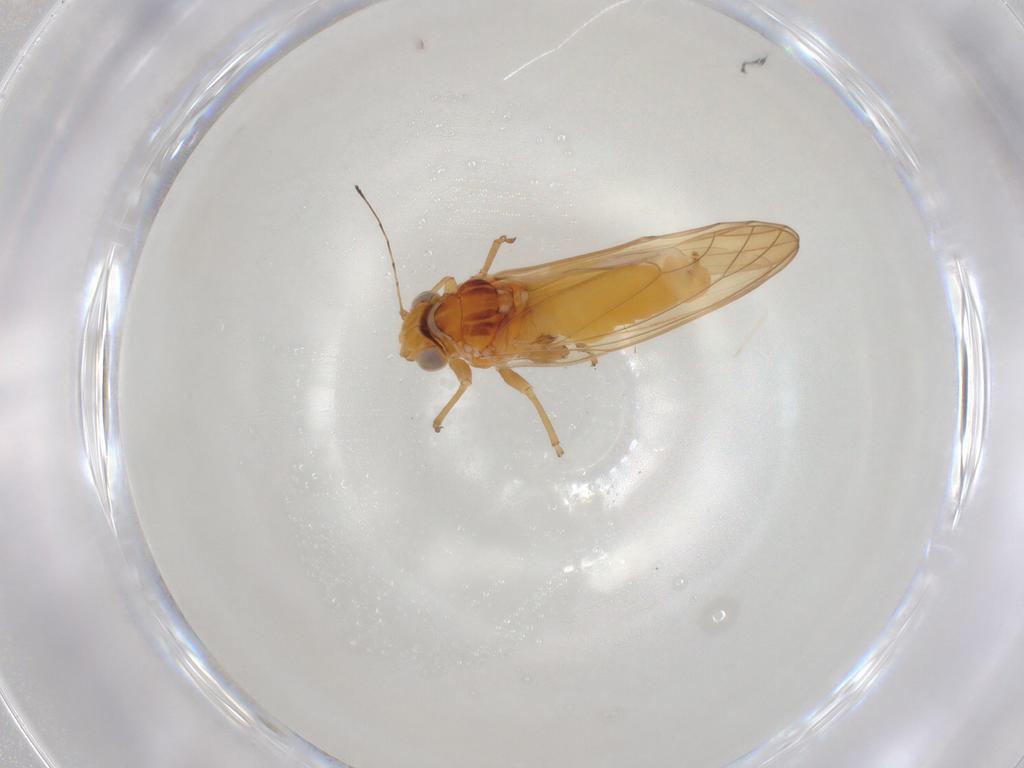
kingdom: Animalia
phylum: Arthropoda
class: Insecta
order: Diptera
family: Cecidomyiidae
